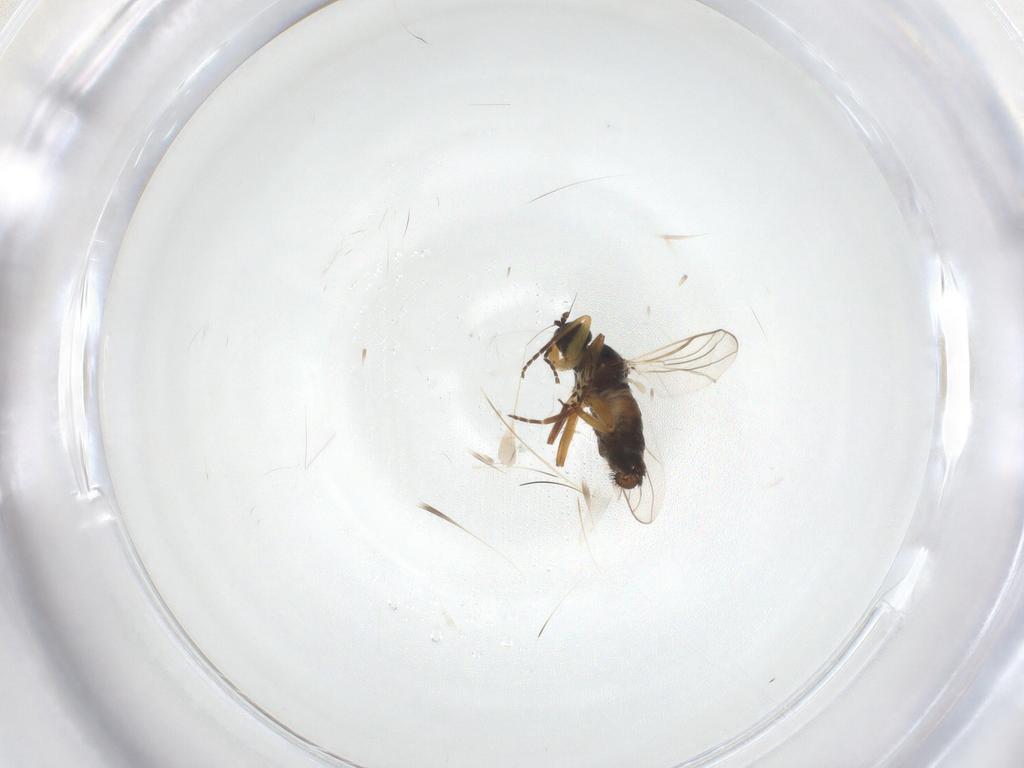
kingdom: Animalia
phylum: Arthropoda
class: Insecta
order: Diptera
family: Hybotidae
